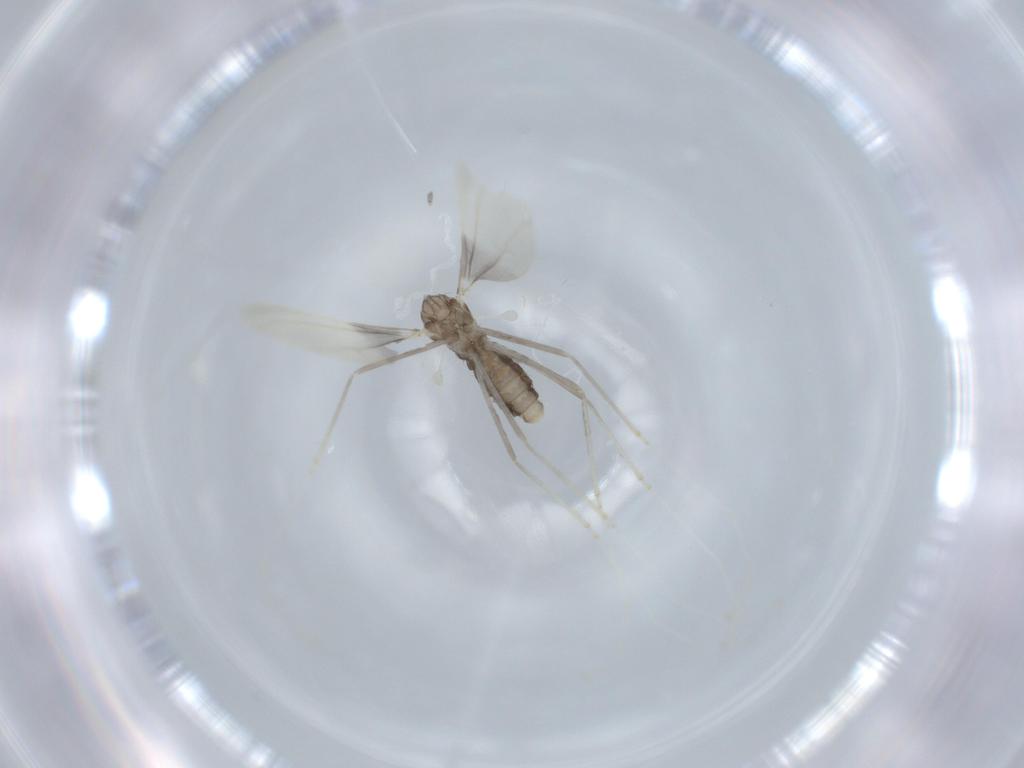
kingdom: Animalia
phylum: Arthropoda
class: Insecta
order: Diptera
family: Cecidomyiidae
